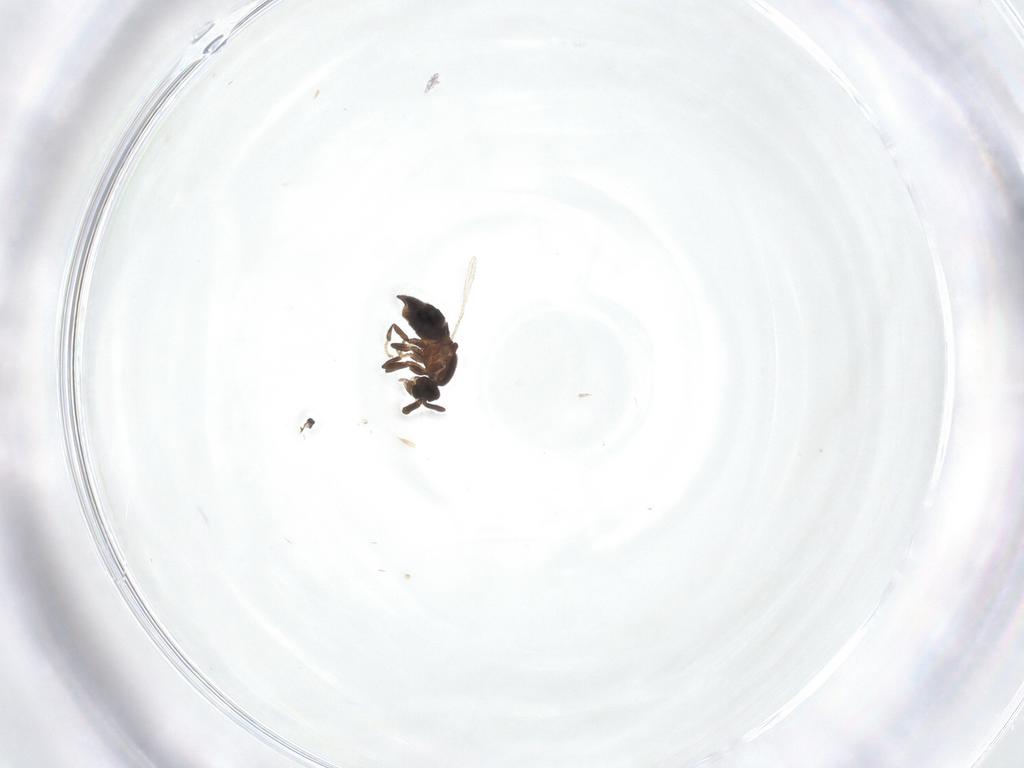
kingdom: Animalia
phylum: Arthropoda
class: Insecta
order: Diptera
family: Scatopsidae
